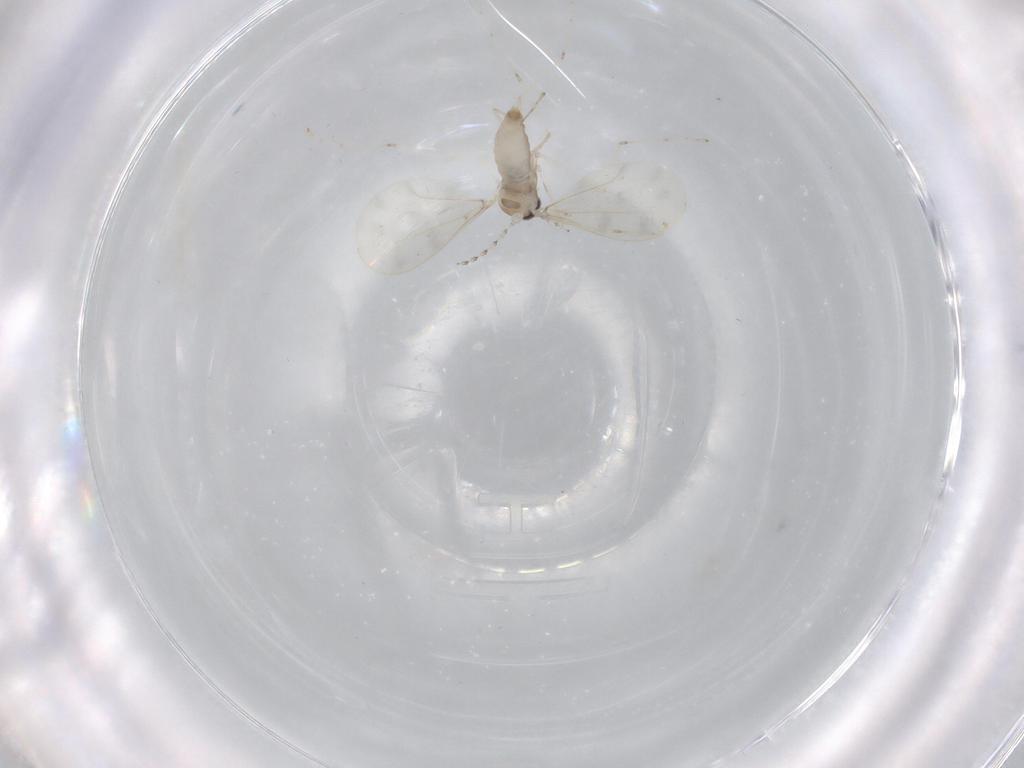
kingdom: Animalia
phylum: Arthropoda
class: Insecta
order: Diptera
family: Cecidomyiidae
